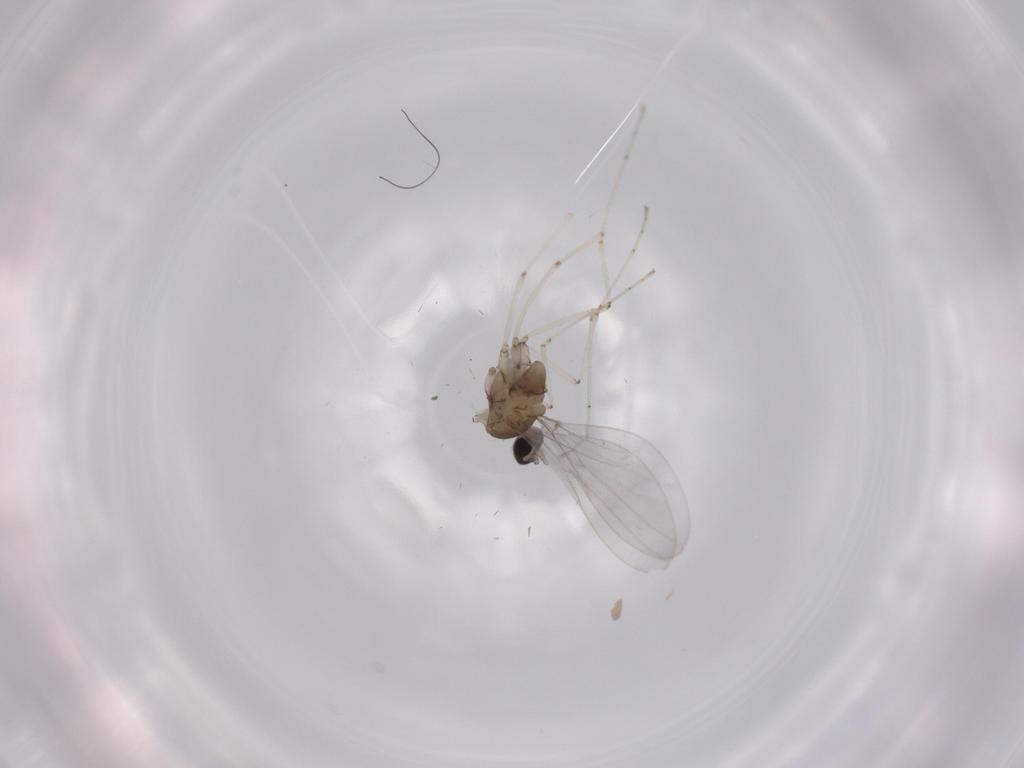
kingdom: Animalia
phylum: Arthropoda
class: Insecta
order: Diptera
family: Cecidomyiidae
